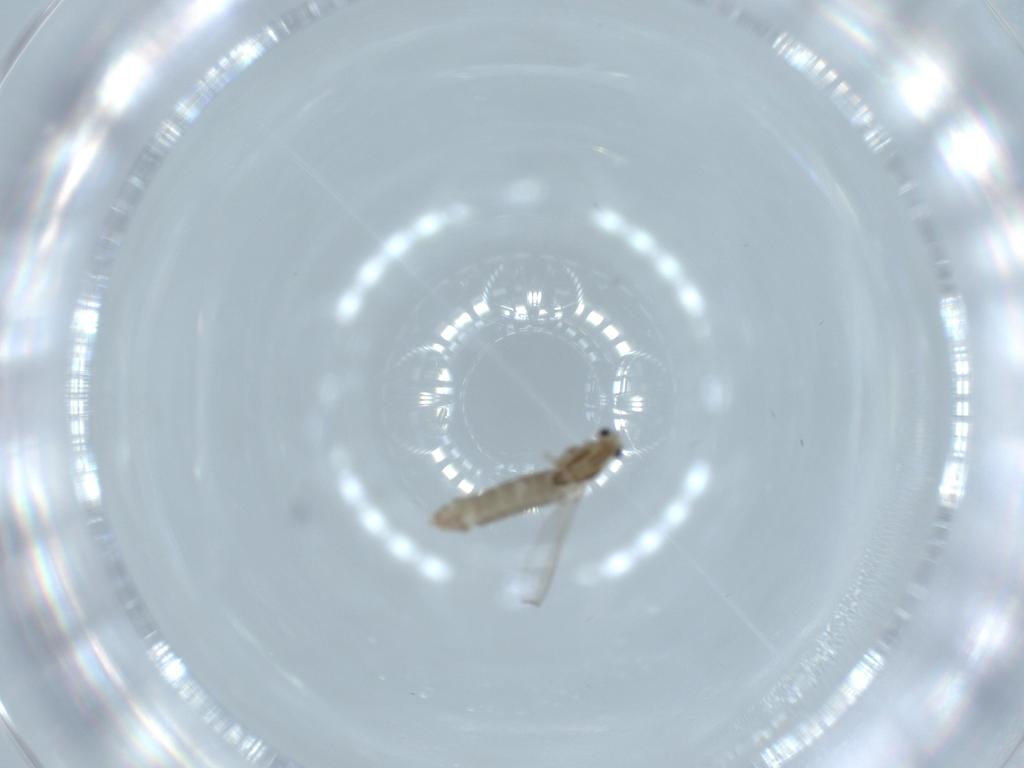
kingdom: Animalia
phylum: Arthropoda
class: Insecta
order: Diptera
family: Chironomidae
